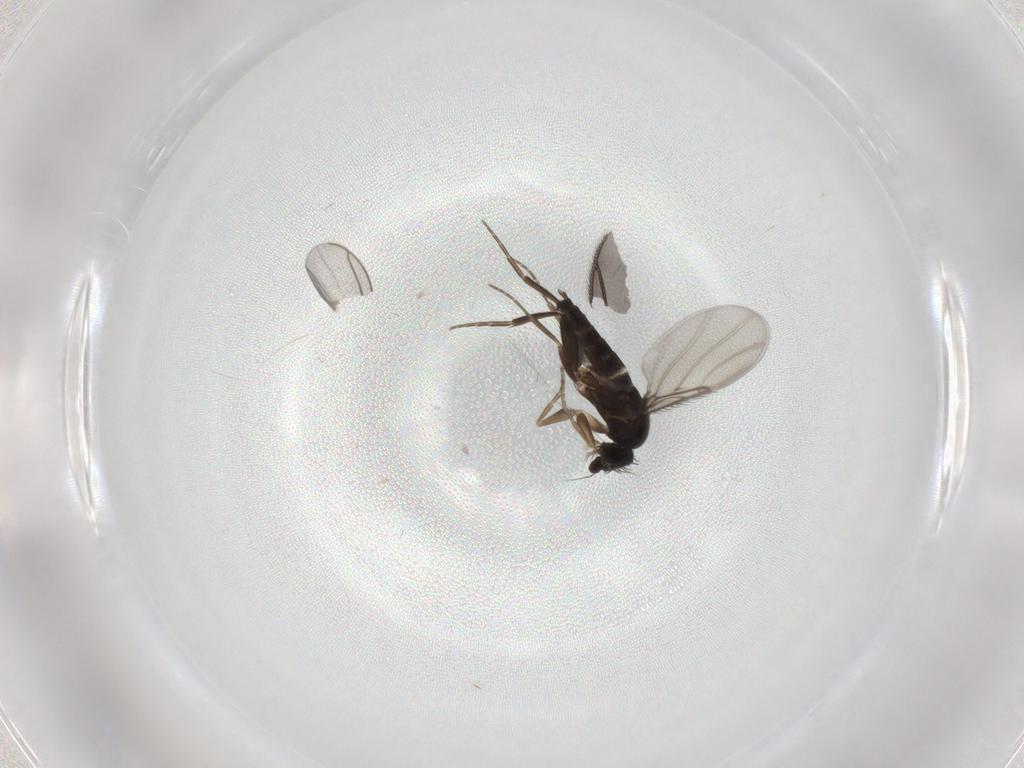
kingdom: Animalia
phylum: Arthropoda
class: Insecta
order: Diptera
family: Phoridae
